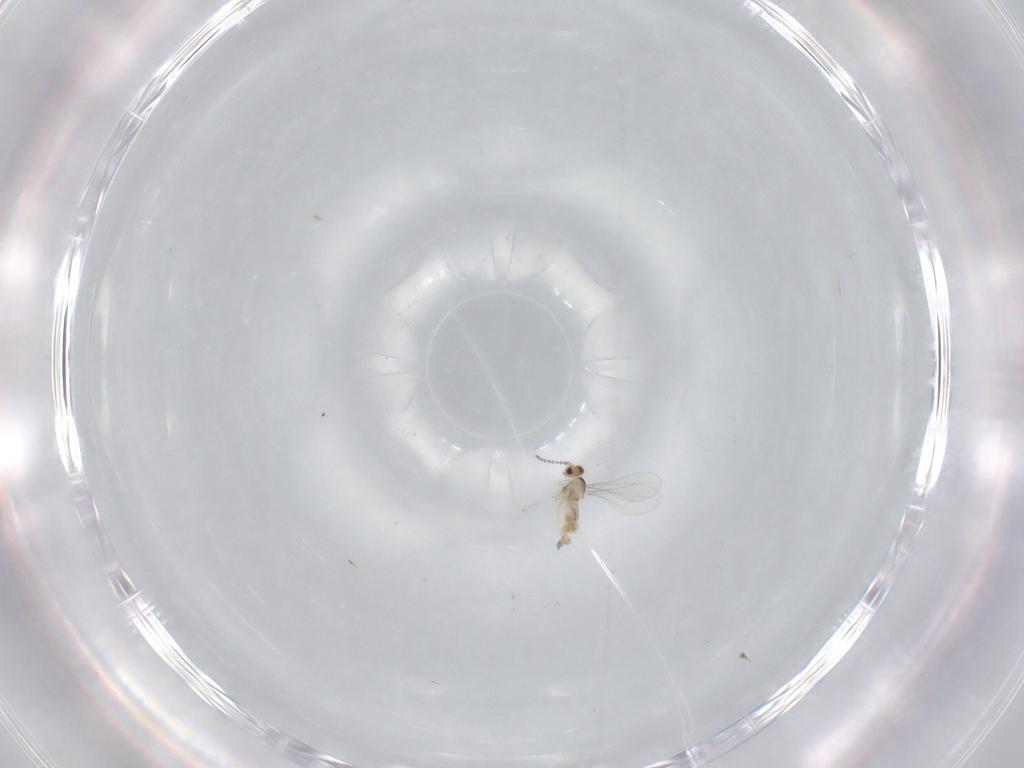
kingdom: Animalia
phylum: Arthropoda
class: Insecta
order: Diptera
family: Cecidomyiidae
